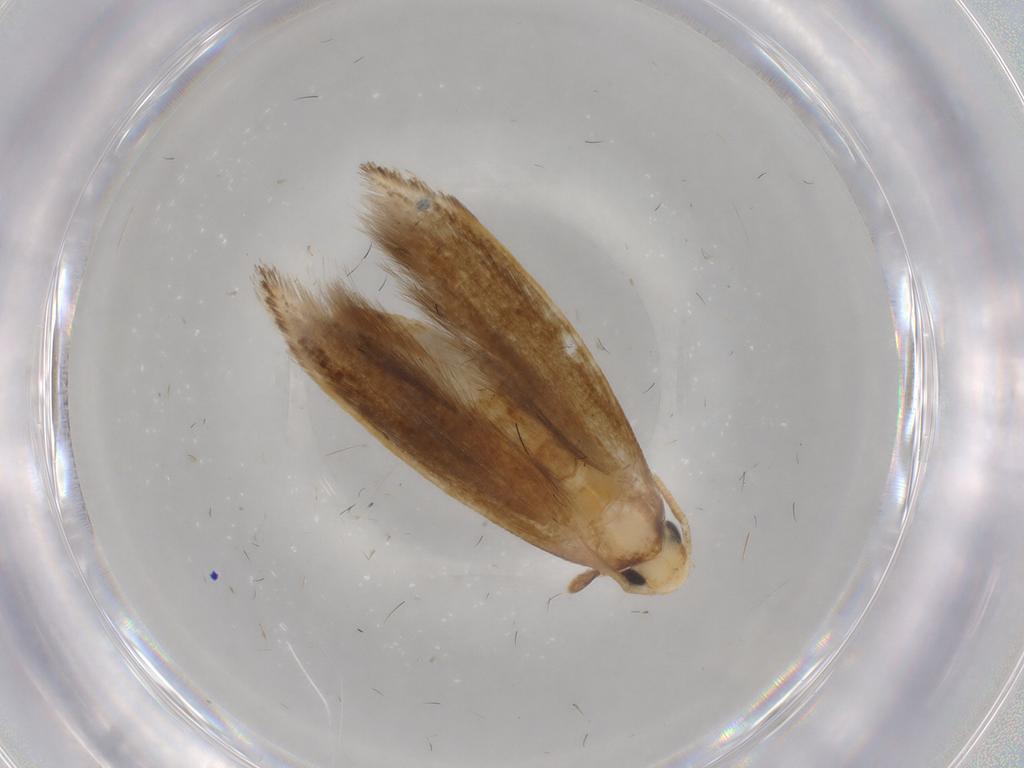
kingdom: Animalia
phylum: Arthropoda
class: Insecta
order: Lepidoptera
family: Tineidae
